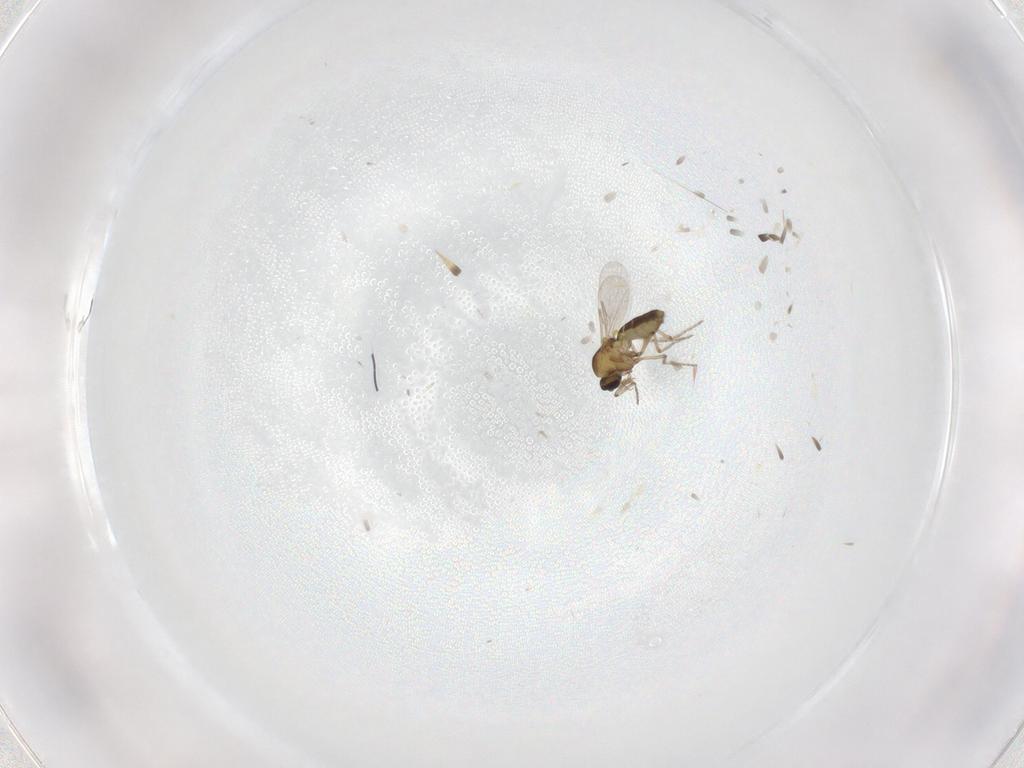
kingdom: Animalia
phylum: Arthropoda
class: Insecta
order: Diptera
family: Ceratopogonidae
